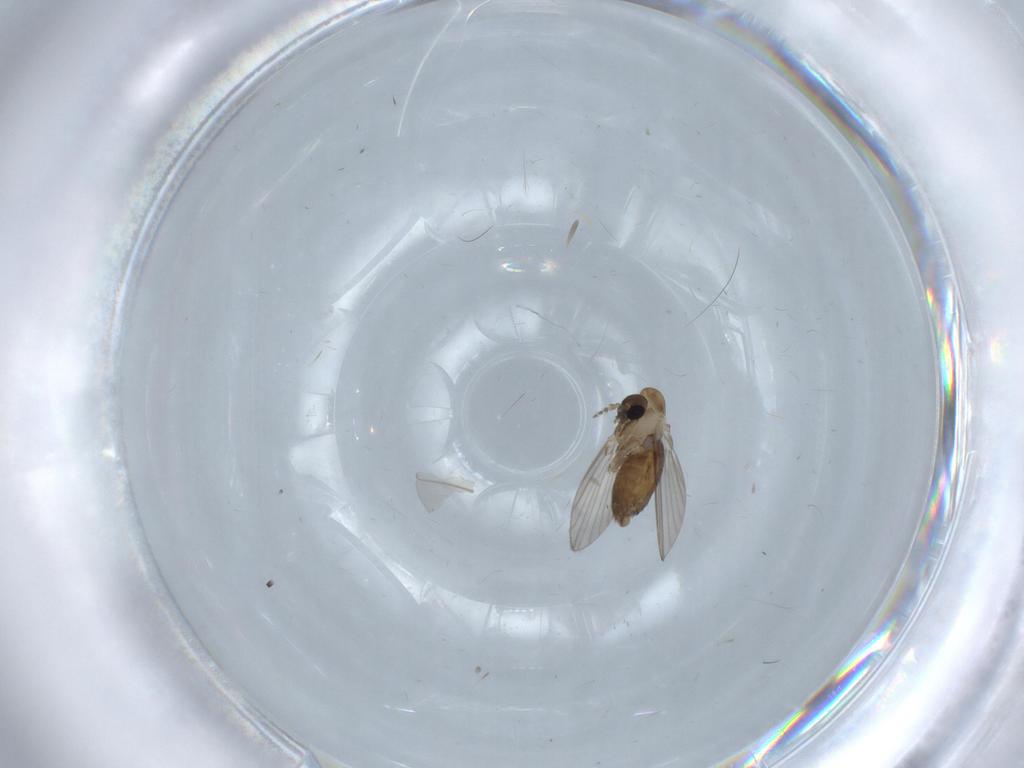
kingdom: Animalia
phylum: Arthropoda
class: Insecta
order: Diptera
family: Psychodidae
